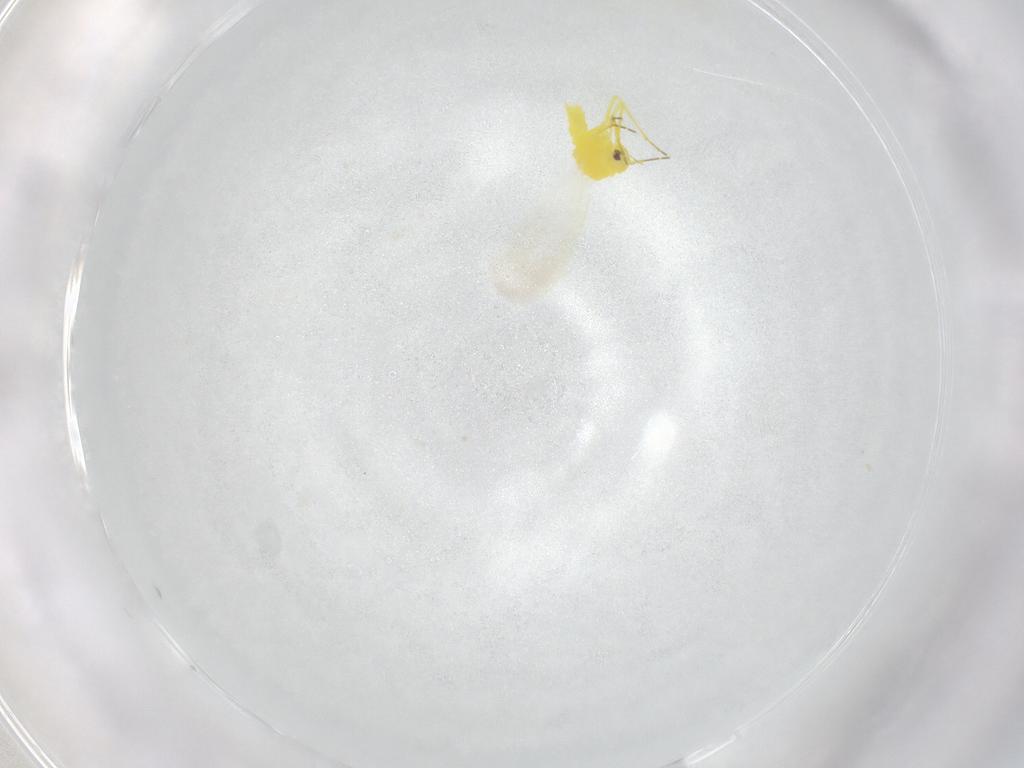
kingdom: Animalia
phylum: Arthropoda
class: Insecta
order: Hemiptera
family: Aleyrodidae
